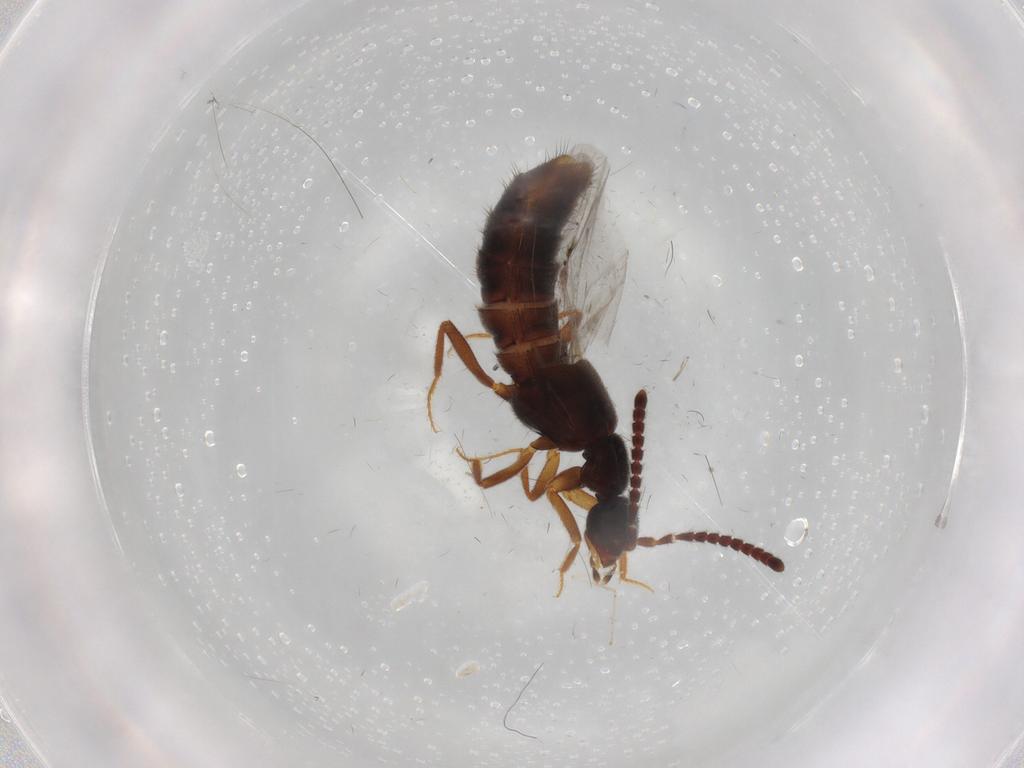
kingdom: Animalia
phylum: Arthropoda
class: Insecta
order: Coleoptera
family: Staphylinidae
